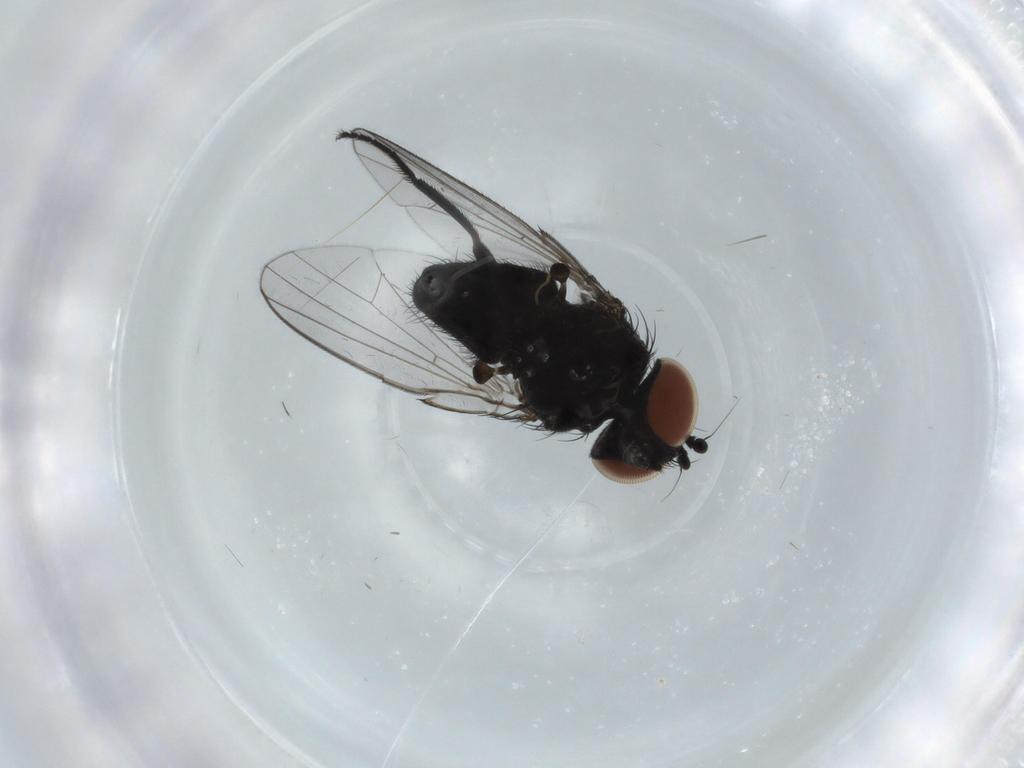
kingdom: Animalia
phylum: Arthropoda
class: Insecta
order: Diptera
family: Milichiidae
